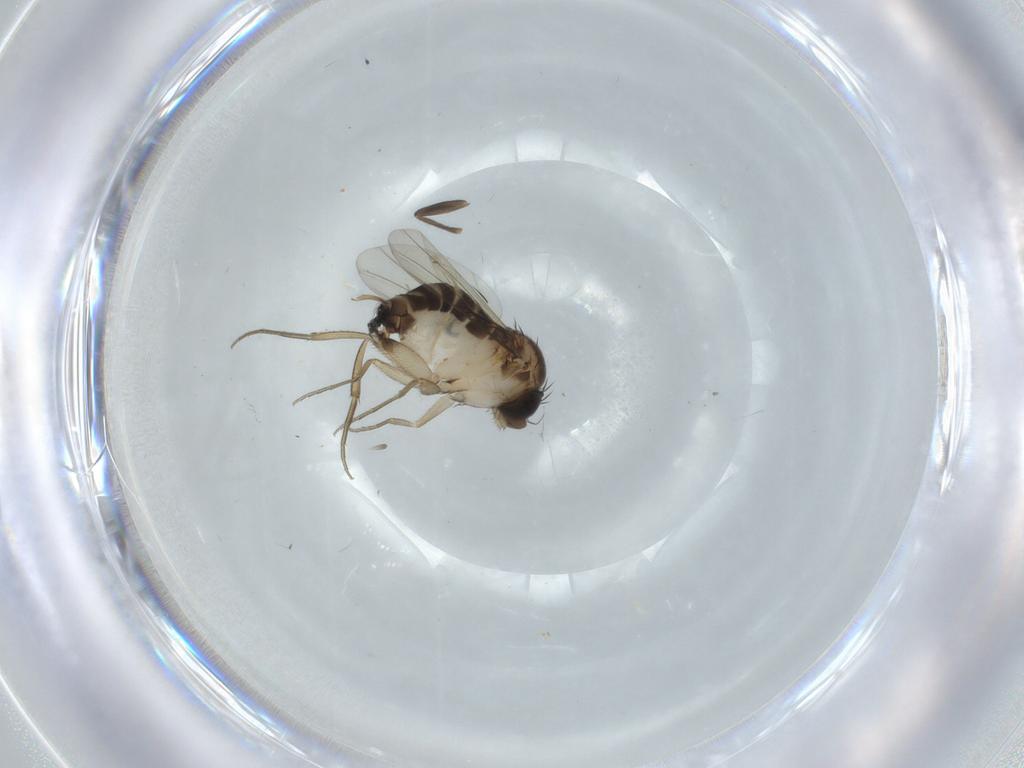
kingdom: Animalia
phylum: Arthropoda
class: Insecta
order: Diptera
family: Phoridae
